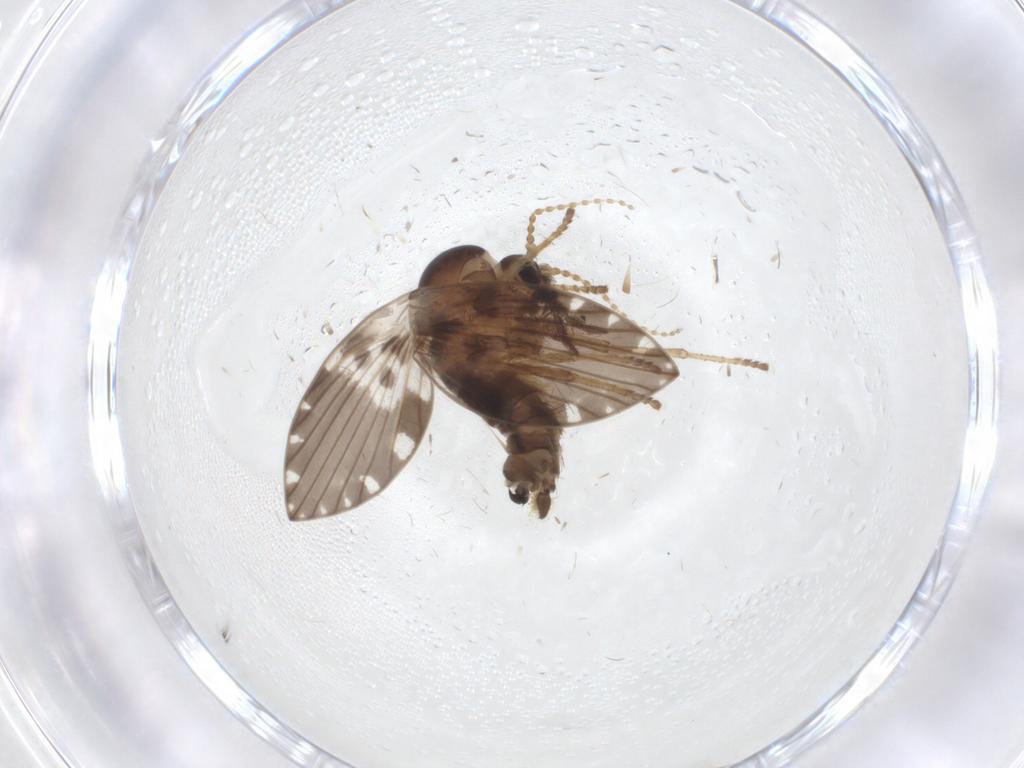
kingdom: Animalia
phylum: Arthropoda
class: Insecta
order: Diptera
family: Psychodidae
